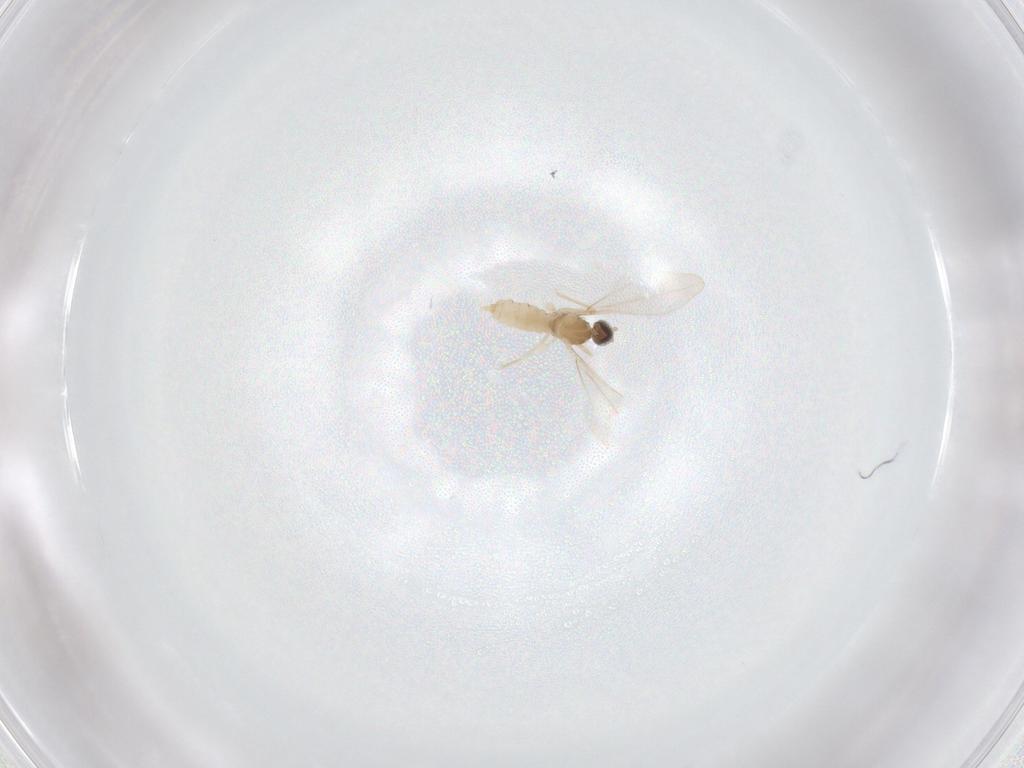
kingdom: Animalia
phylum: Arthropoda
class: Insecta
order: Diptera
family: Cecidomyiidae
